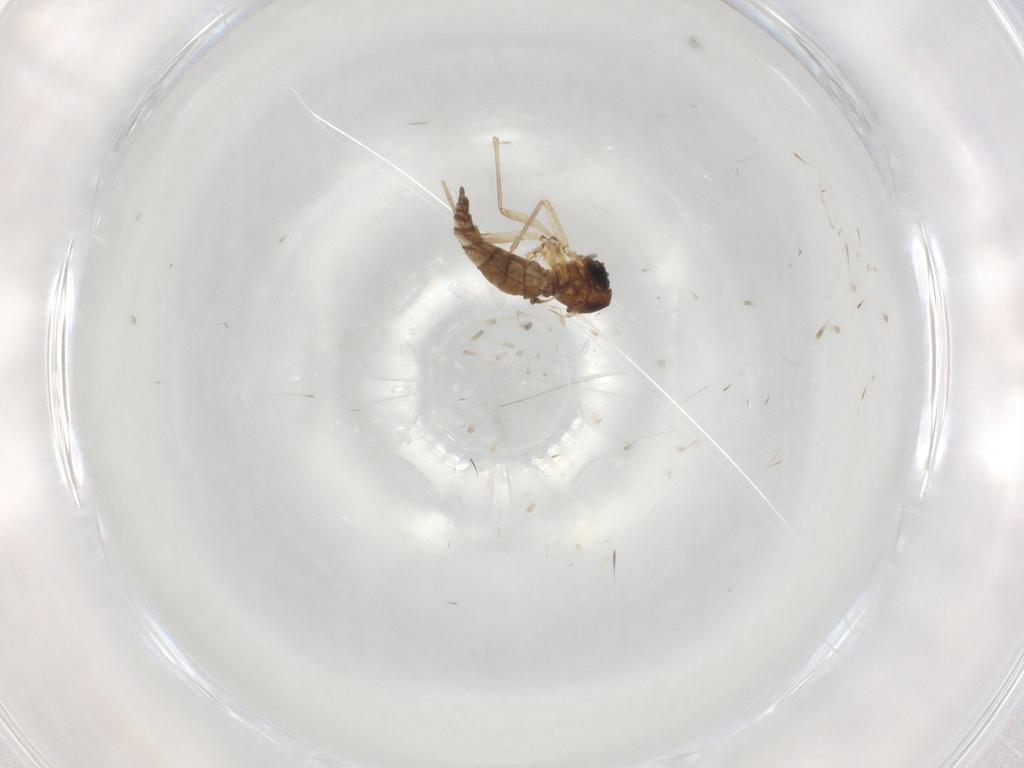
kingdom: Animalia
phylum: Arthropoda
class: Insecta
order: Diptera
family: Sciaridae
